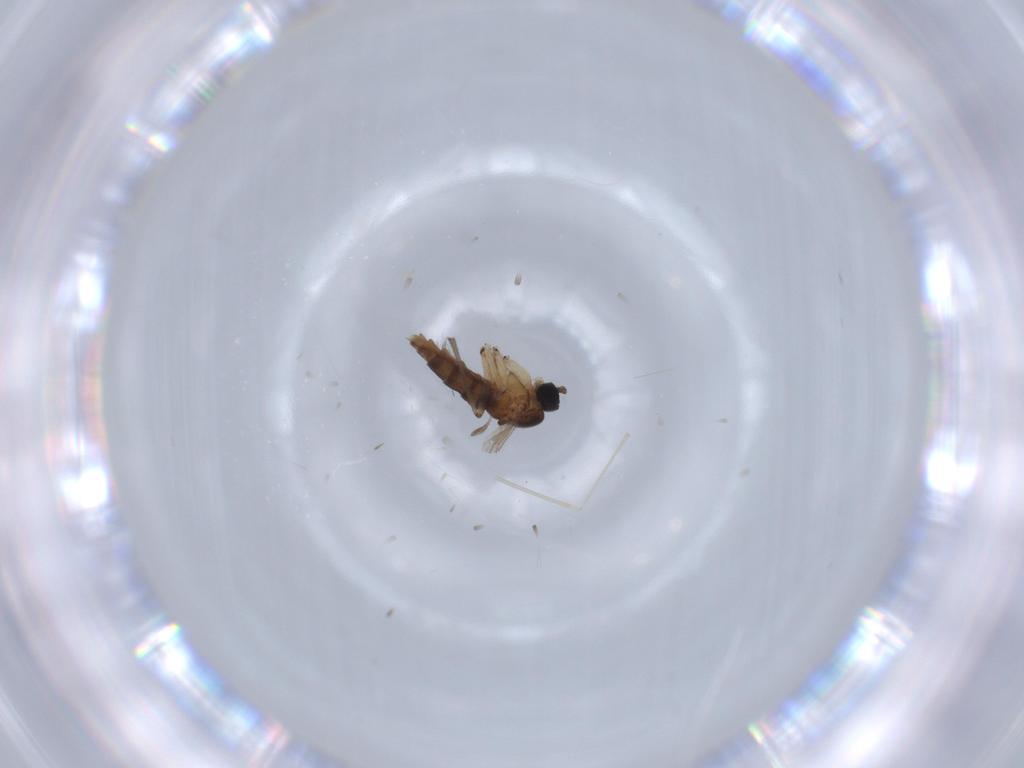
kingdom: Animalia
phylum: Arthropoda
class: Insecta
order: Diptera
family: Sciaridae
